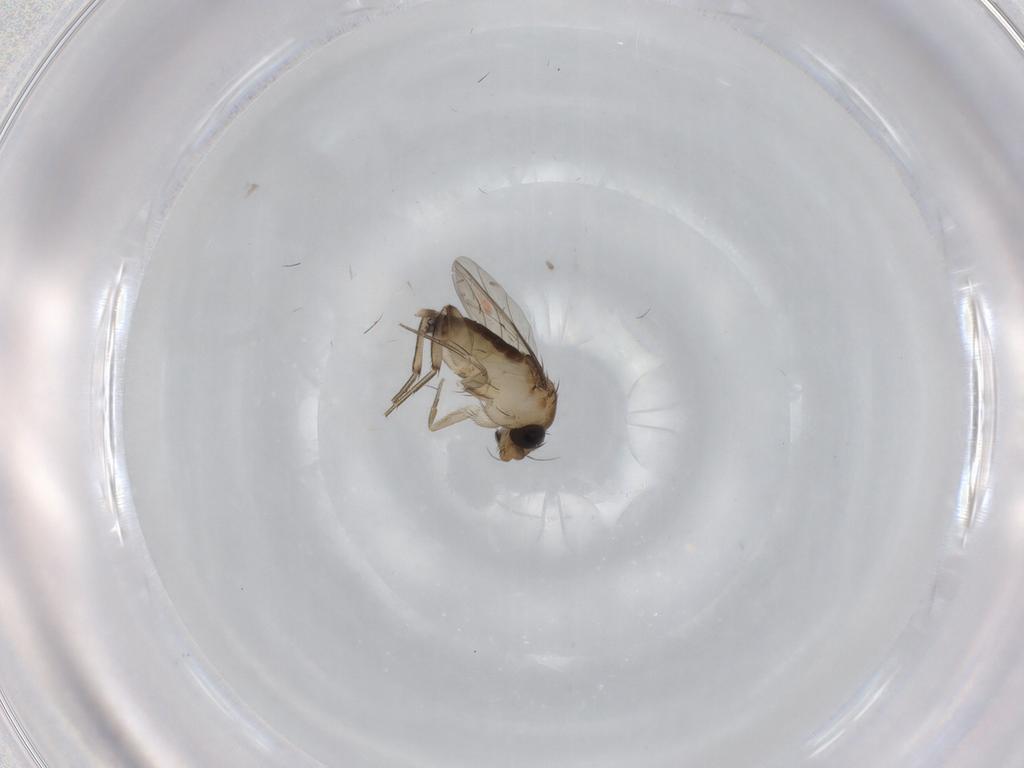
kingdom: Animalia
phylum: Arthropoda
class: Insecta
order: Diptera
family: Phoridae
